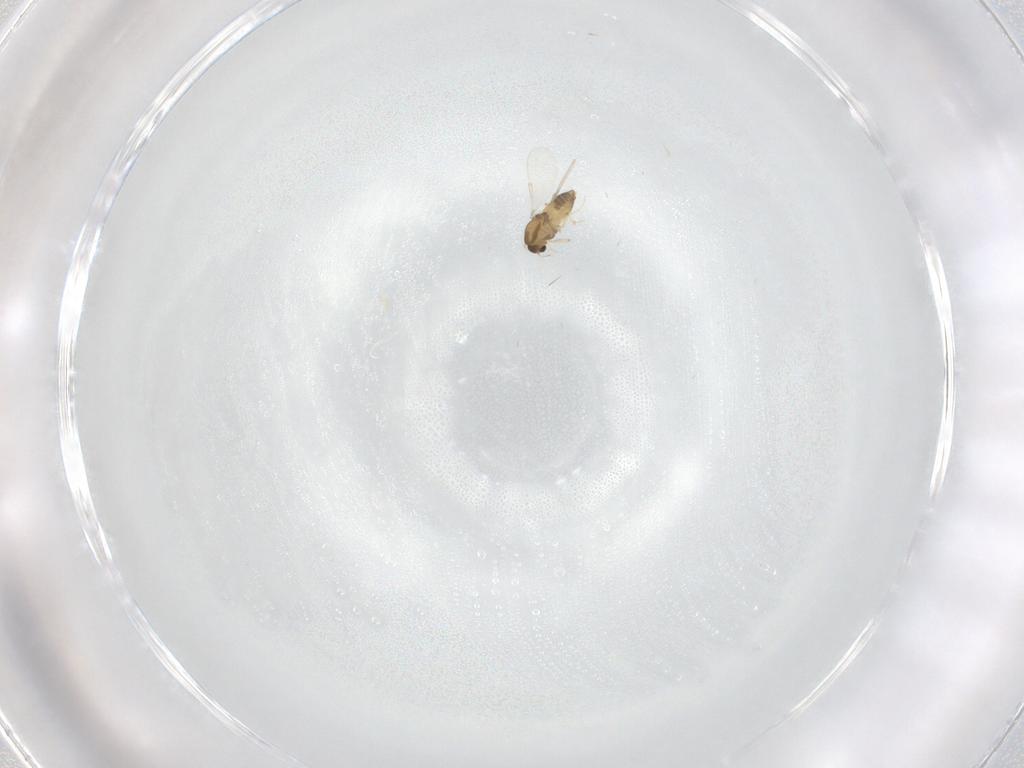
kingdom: Animalia
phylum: Arthropoda
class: Insecta
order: Diptera
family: Chironomidae
